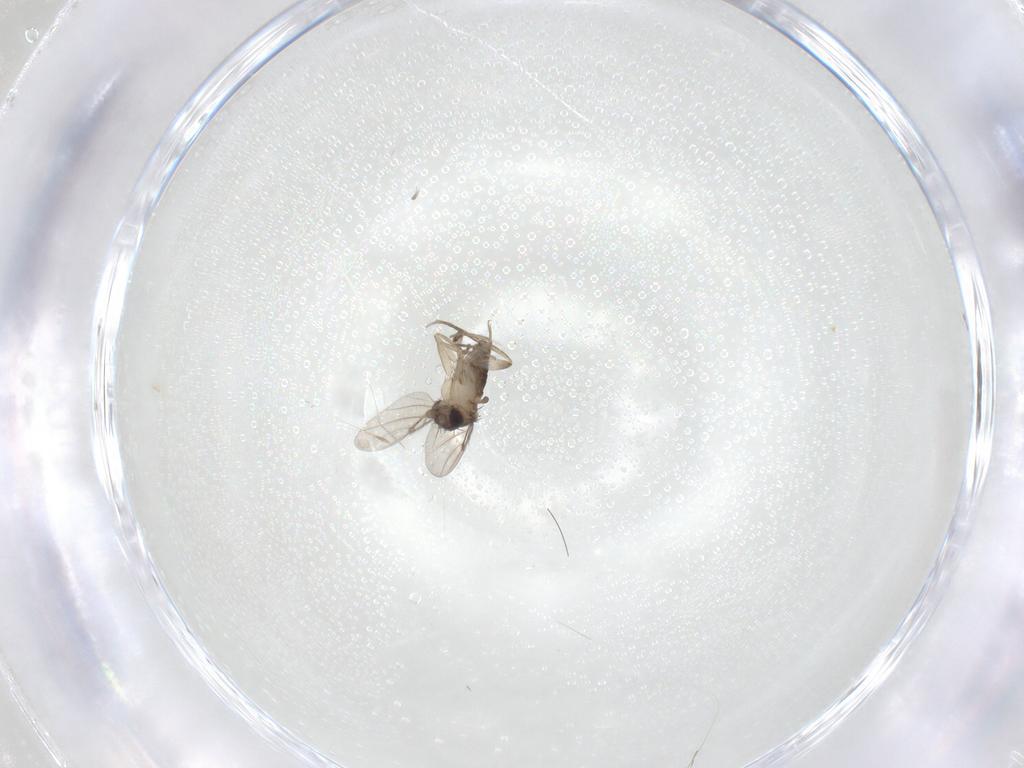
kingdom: Animalia
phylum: Arthropoda
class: Insecta
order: Diptera
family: Phoridae
